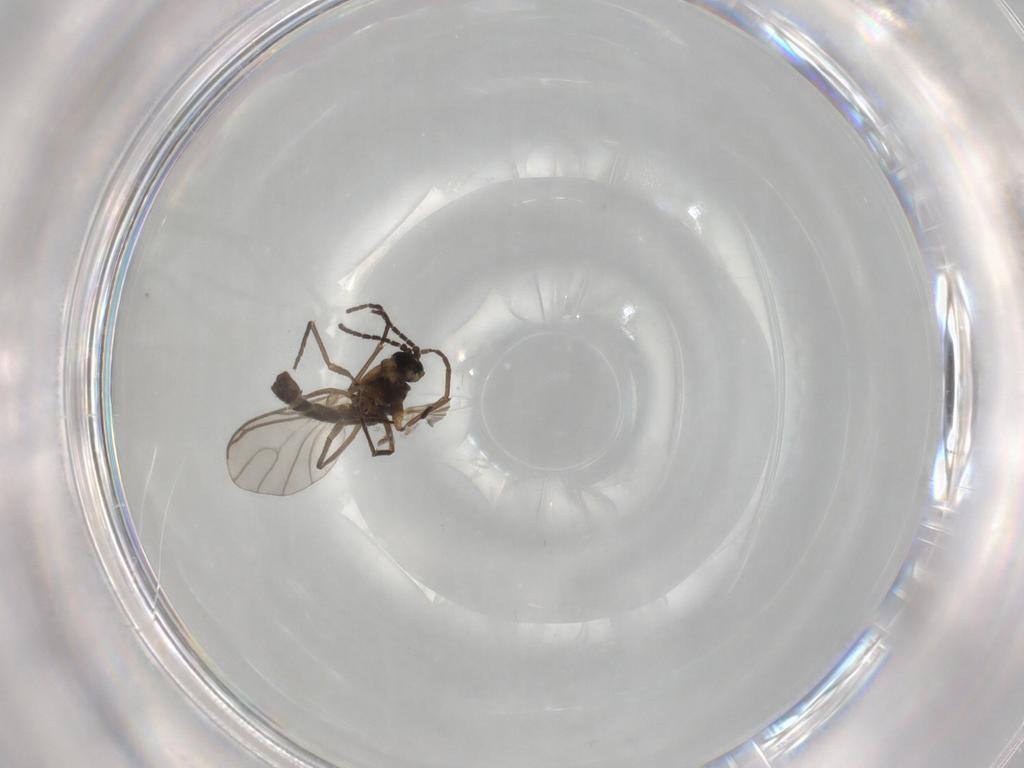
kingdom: Animalia
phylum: Arthropoda
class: Insecta
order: Diptera
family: Sciaridae
